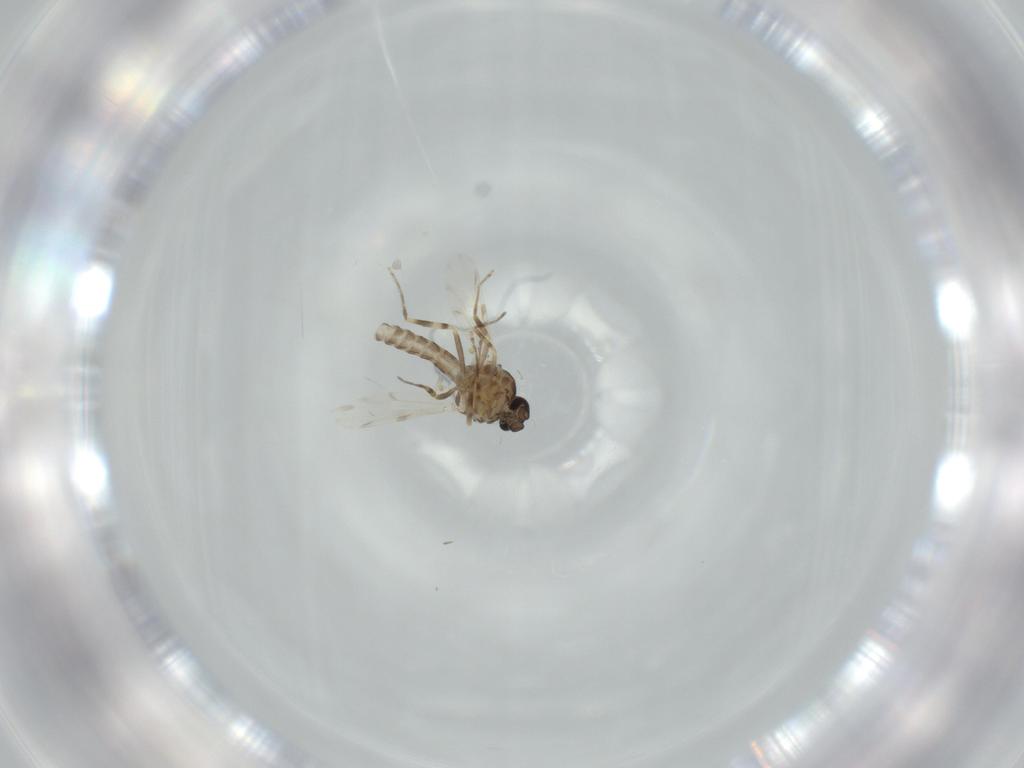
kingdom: Animalia
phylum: Arthropoda
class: Insecta
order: Diptera
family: Ceratopogonidae
